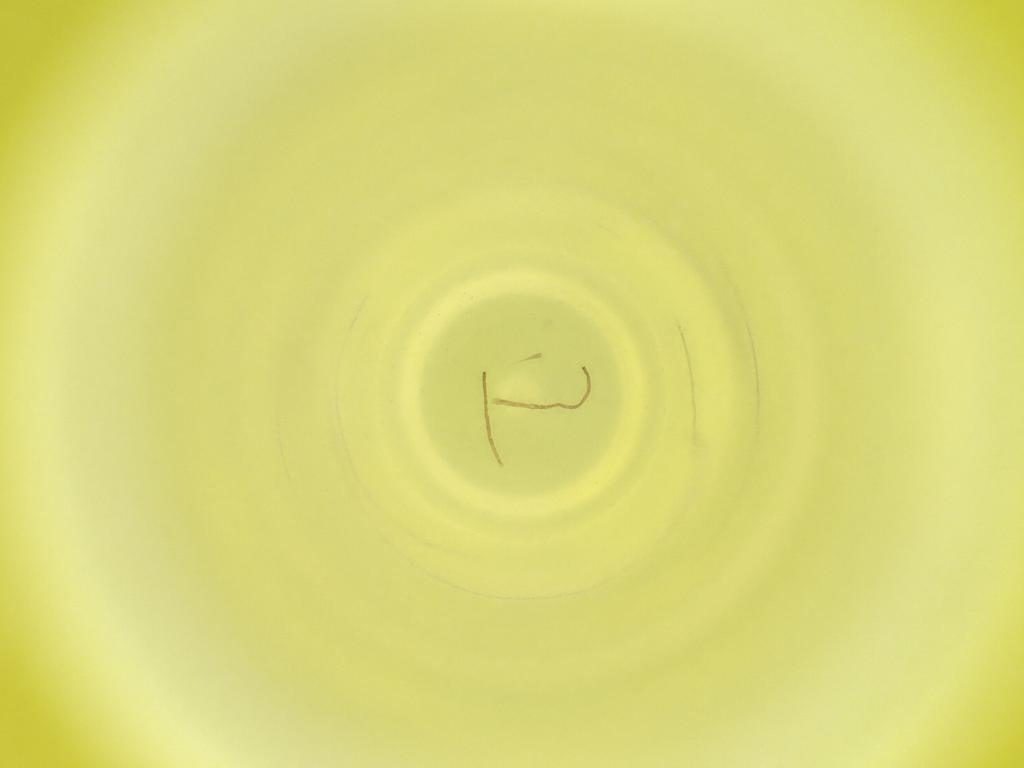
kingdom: Animalia
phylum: Arthropoda
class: Insecta
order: Diptera
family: Cecidomyiidae
